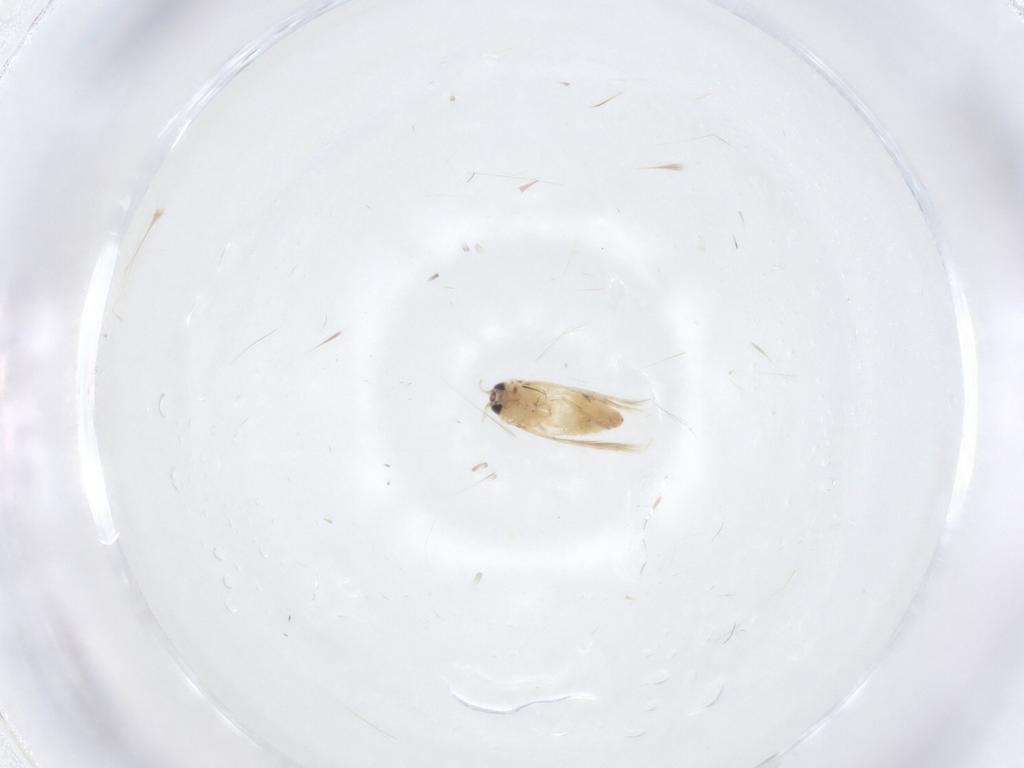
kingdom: Animalia
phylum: Arthropoda
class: Insecta
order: Lepidoptera
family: Crambidae
